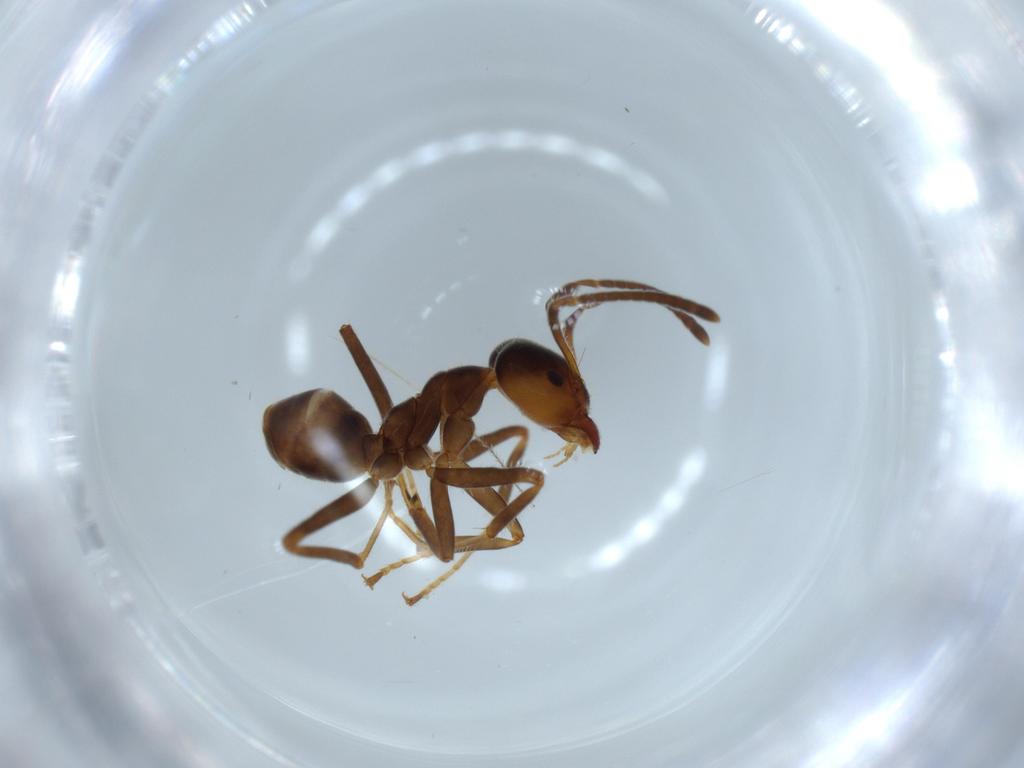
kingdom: Animalia
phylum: Arthropoda
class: Insecta
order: Hymenoptera
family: Formicidae
